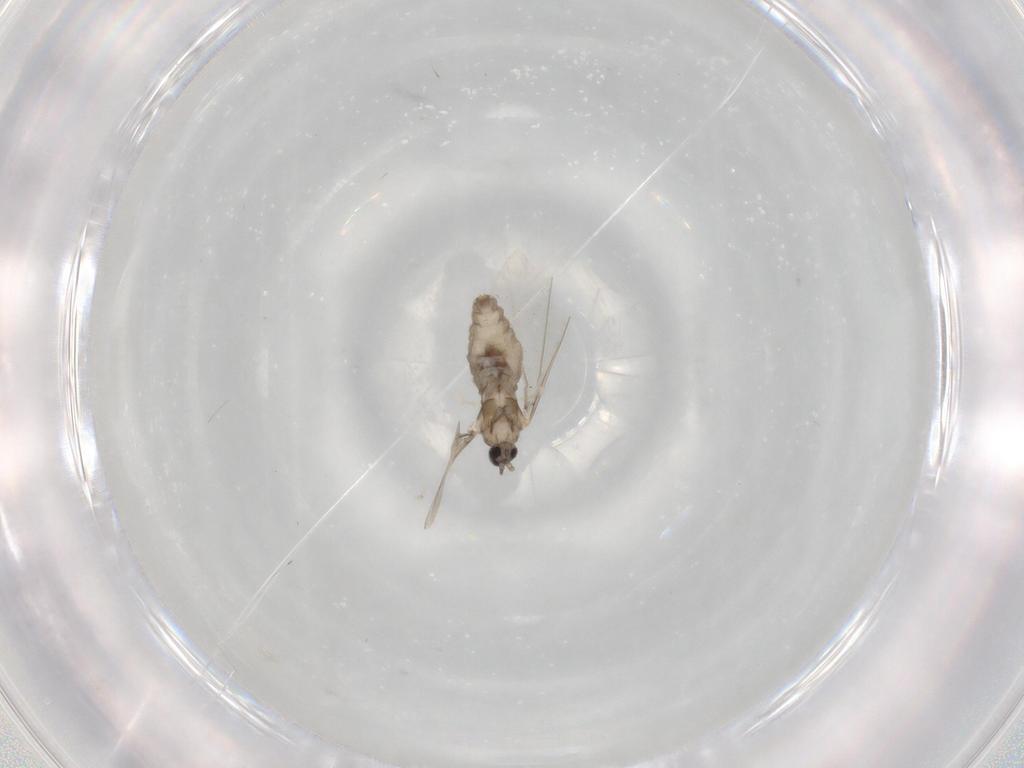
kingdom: Animalia
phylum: Arthropoda
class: Insecta
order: Diptera
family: Cecidomyiidae
